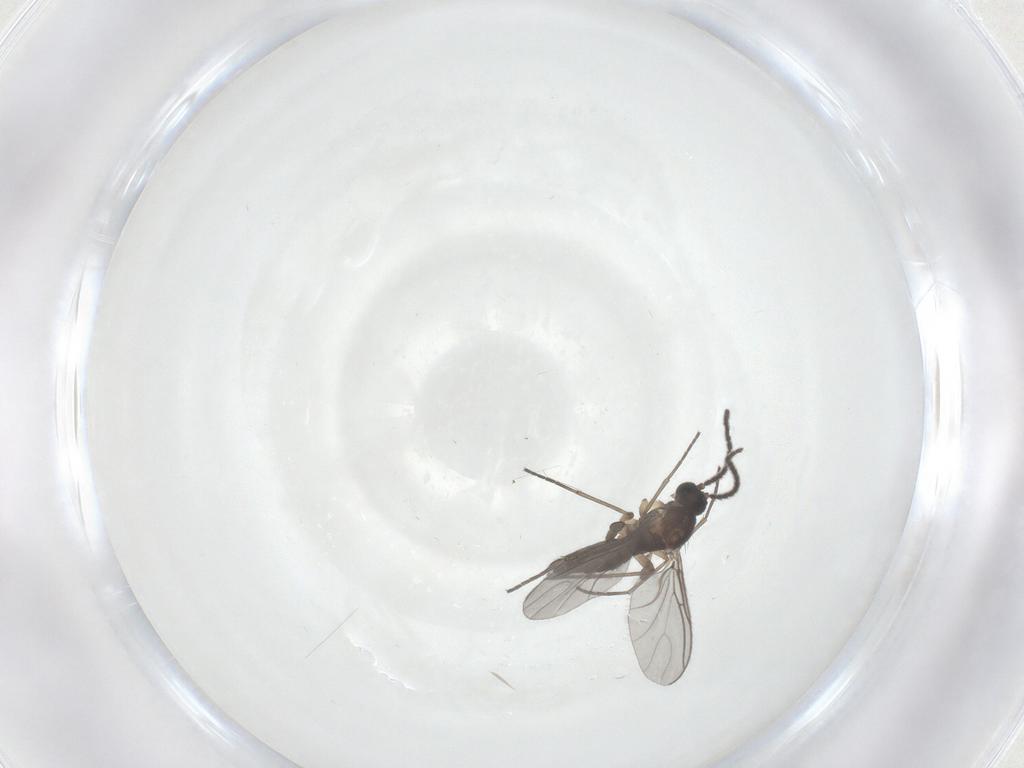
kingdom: Animalia
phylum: Arthropoda
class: Insecta
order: Diptera
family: Sciaridae
